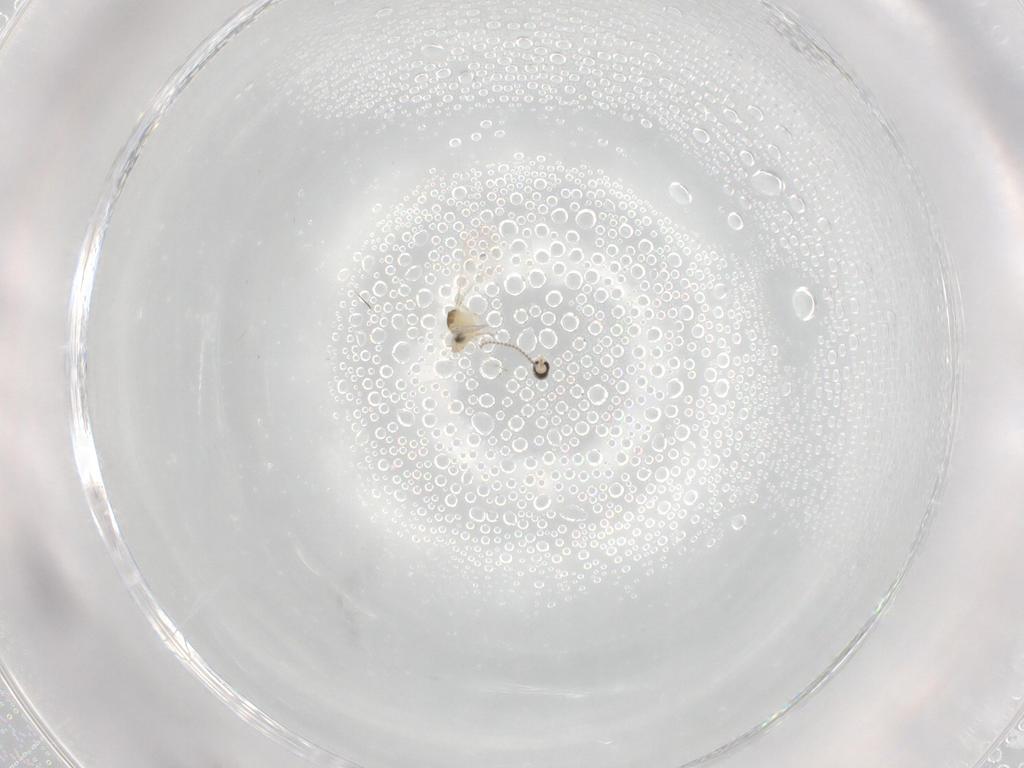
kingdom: Animalia
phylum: Arthropoda
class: Insecta
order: Diptera
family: Cecidomyiidae
